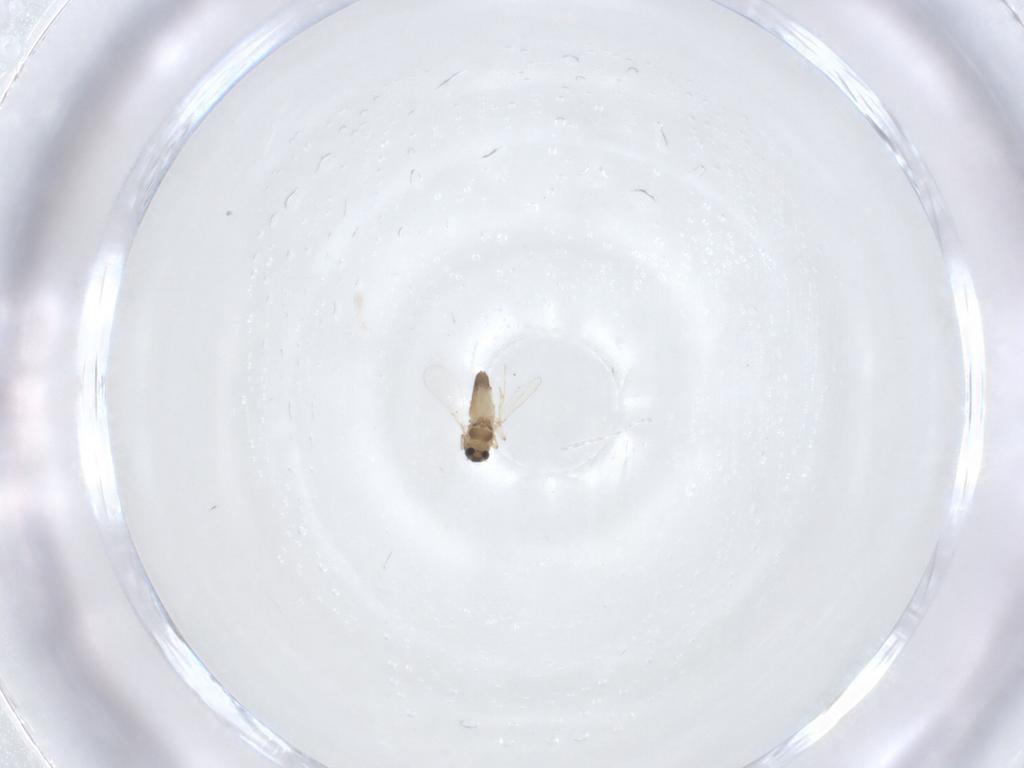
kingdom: Animalia
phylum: Arthropoda
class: Insecta
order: Diptera
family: Chironomidae
